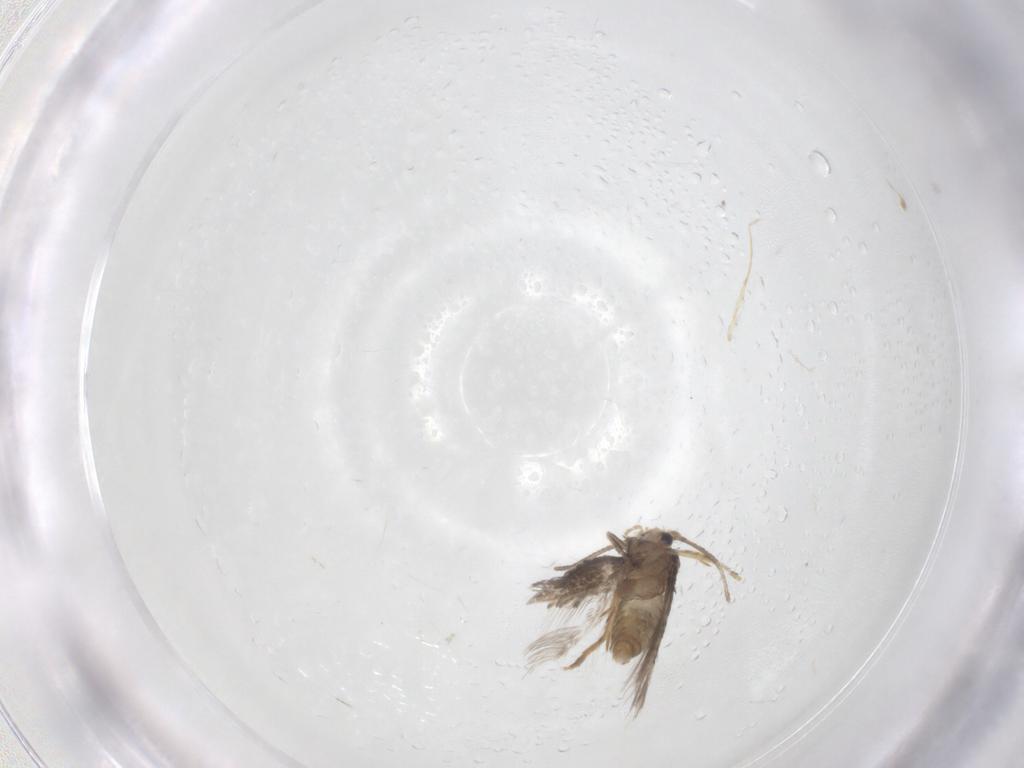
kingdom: Animalia
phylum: Arthropoda
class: Insecta
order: Lepidoptera
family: Nepticulidae
